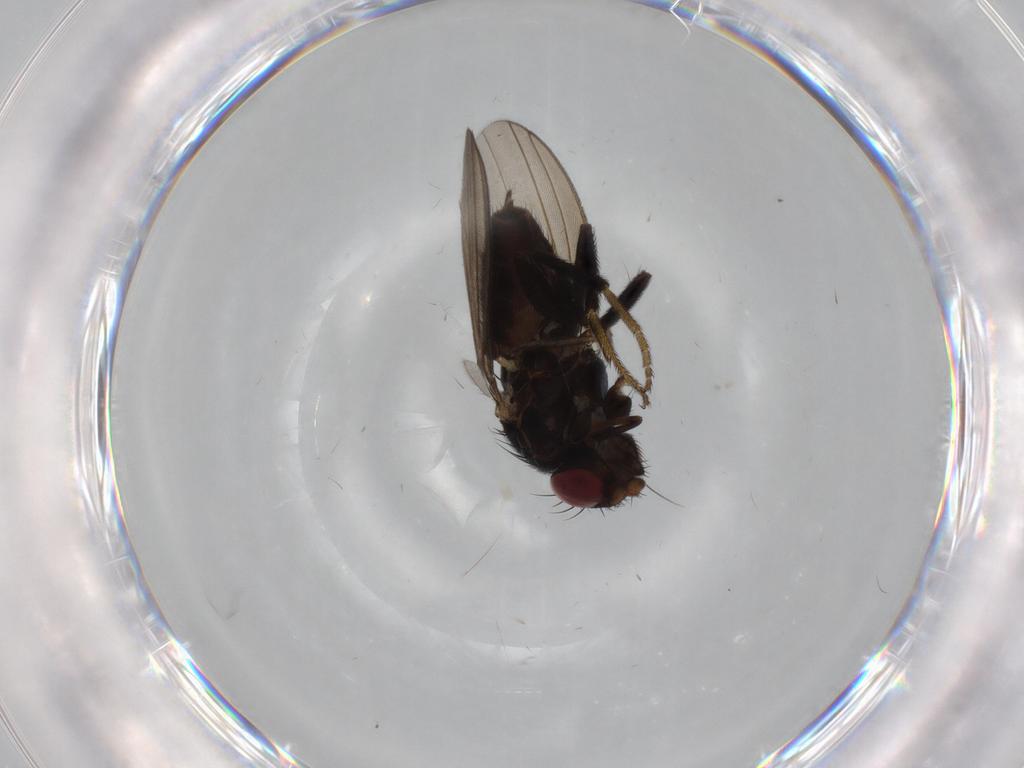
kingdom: Animalia
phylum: Arthropoda
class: Insecta
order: Diptera
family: Milichiidae
